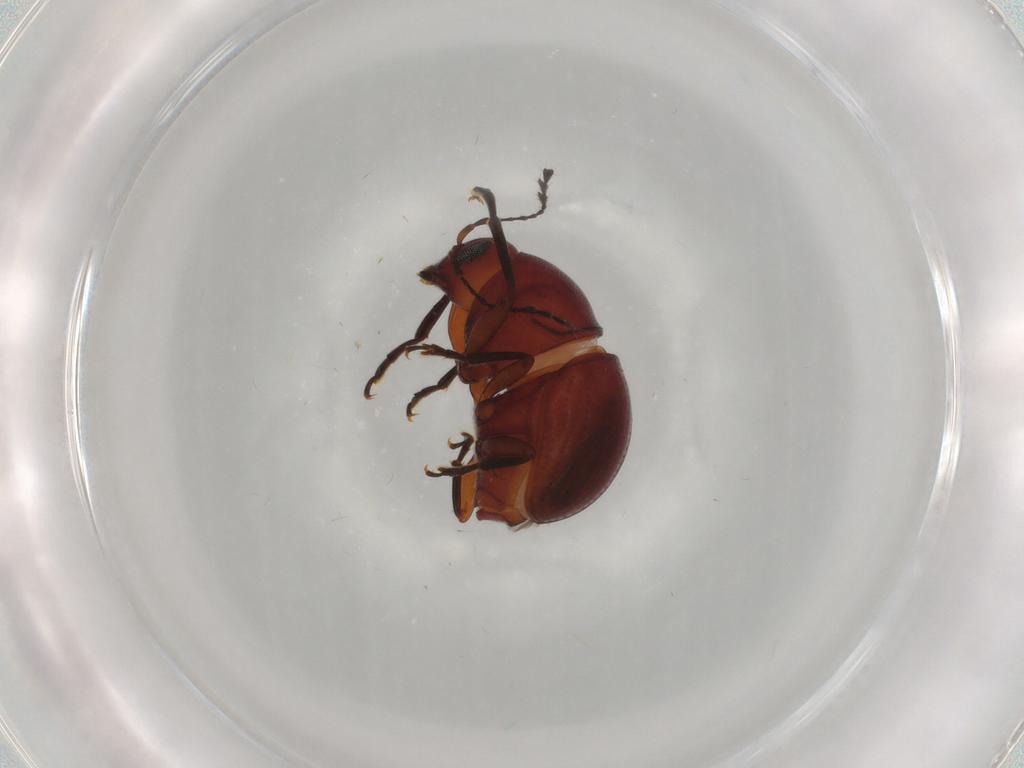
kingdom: Animalia
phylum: Arthropoda
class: Insecta
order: Coleoptera
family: Anthribidae
